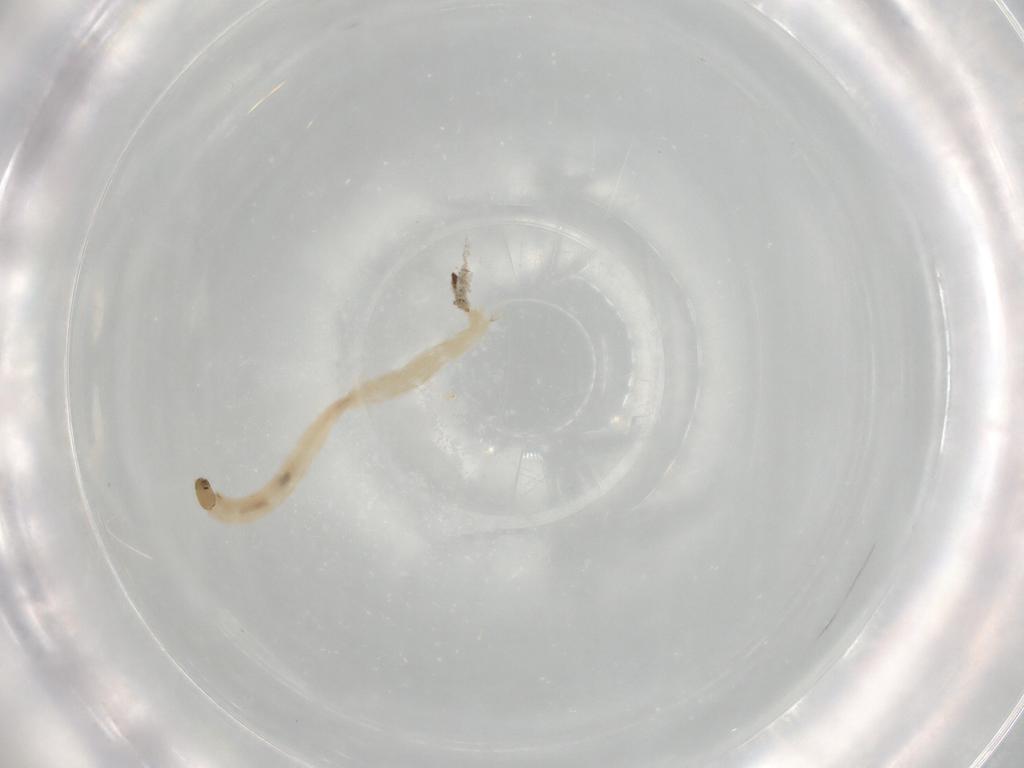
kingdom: Animalia
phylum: Arthropoda
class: Insecta
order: Diptera
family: Chironomidae
